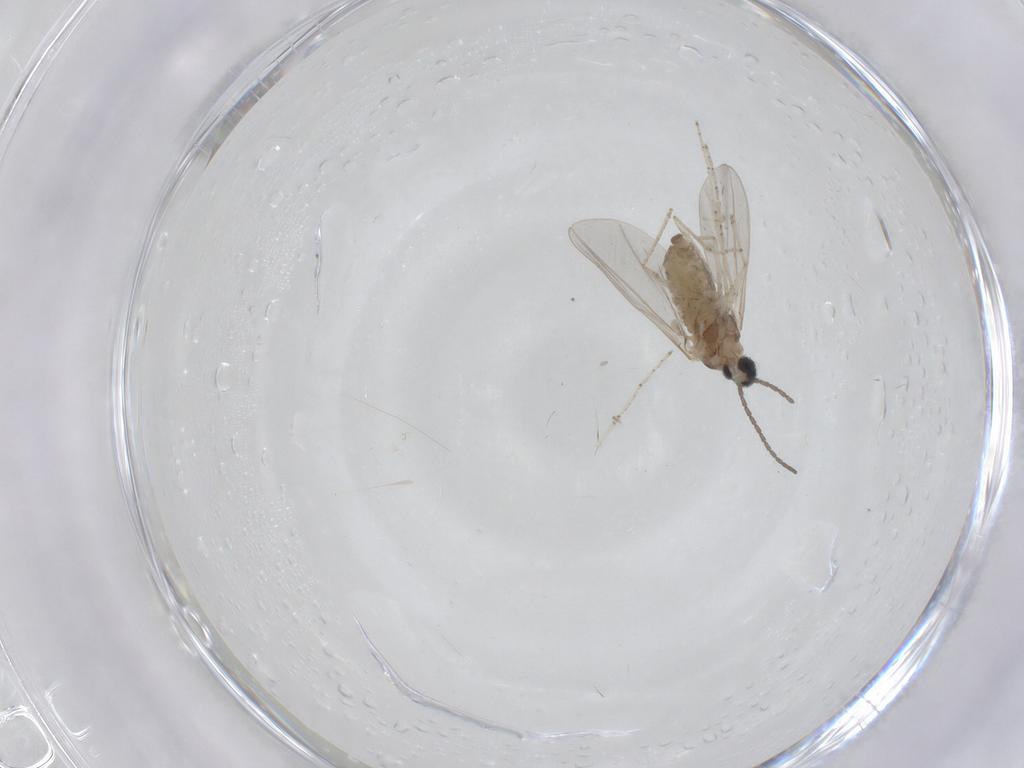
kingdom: Animalia
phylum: Arthropoda
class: Insecta
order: Diptera
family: Cecidomyiidae
